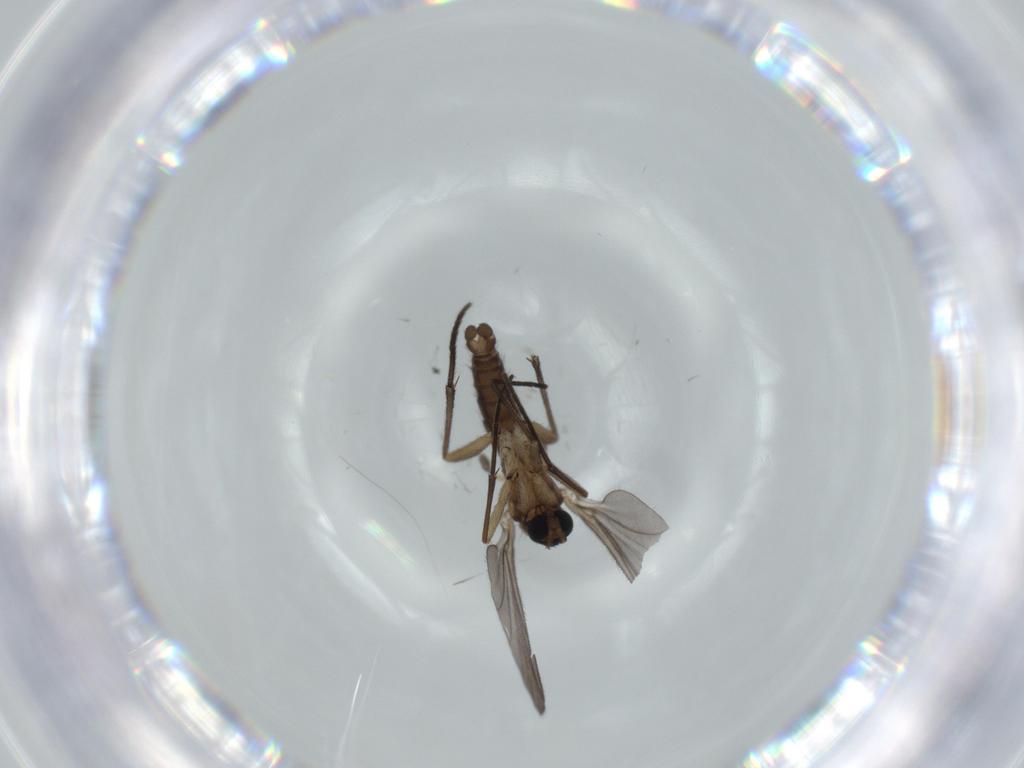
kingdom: Animalia
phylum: Arthropoda
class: Insecta
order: Diptera
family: Sciaridae
